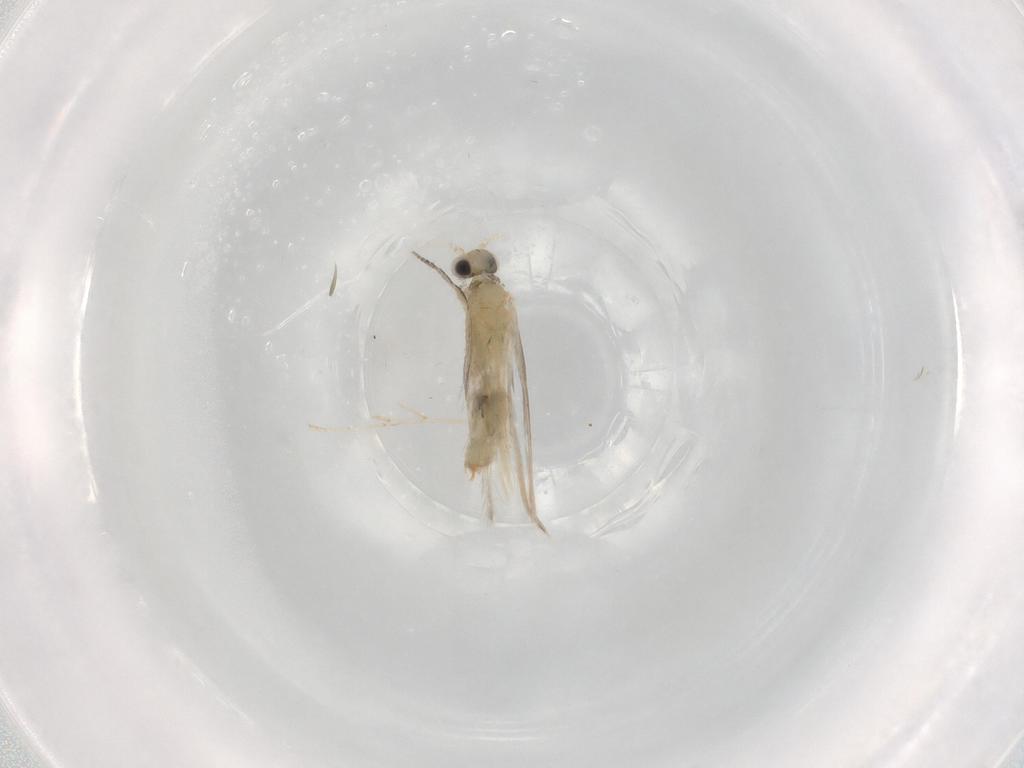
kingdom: Animalia
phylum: Arthropoda
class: Insecta
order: Trichoptera
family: Hydroptilidae
